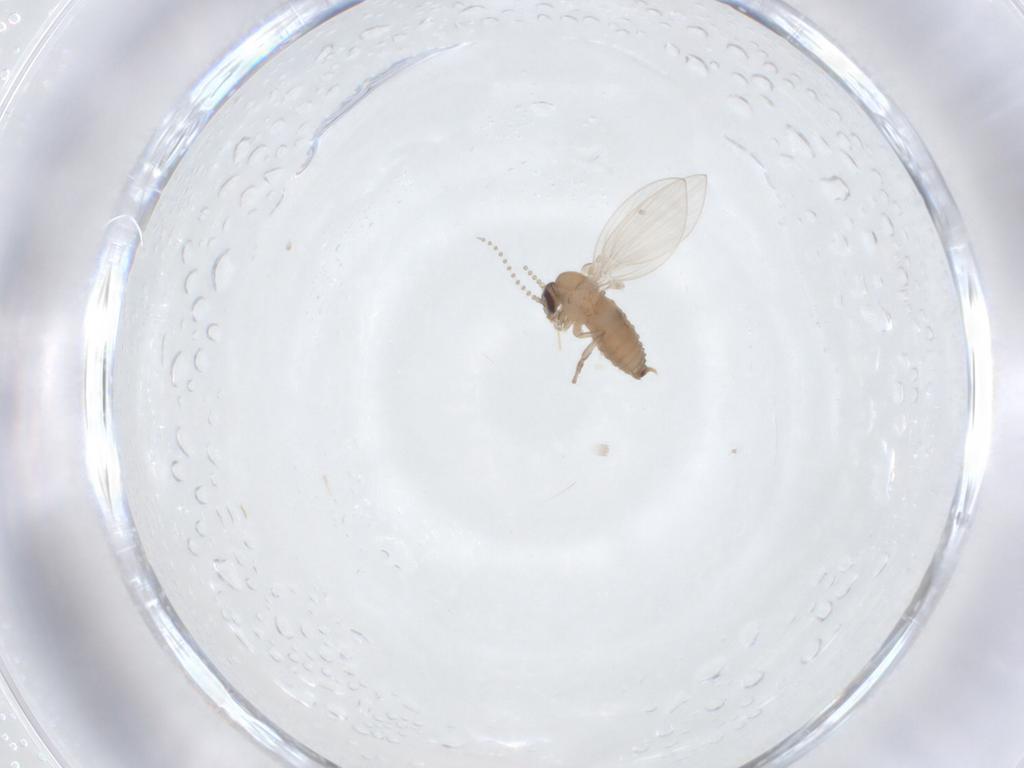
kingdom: Animalia
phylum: Arthropoda
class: Insecta
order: Diptera
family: Psychodidae
